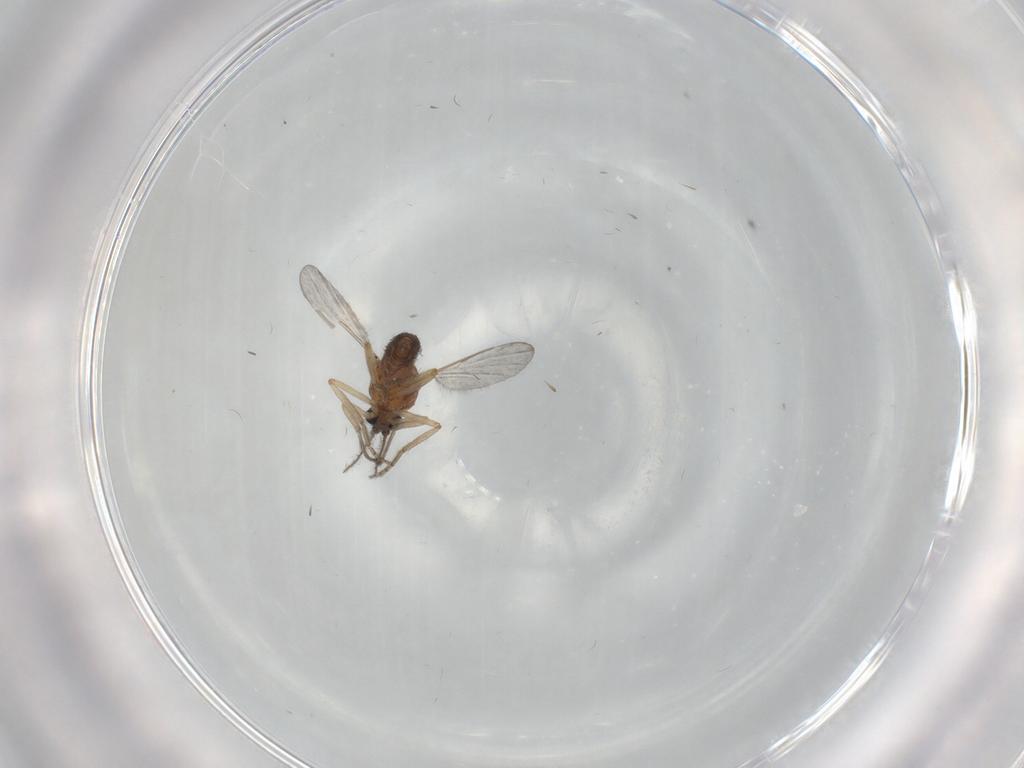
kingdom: Animalia
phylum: Arthropoda
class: Insecta
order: Diptera
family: Ceratopogonidae
